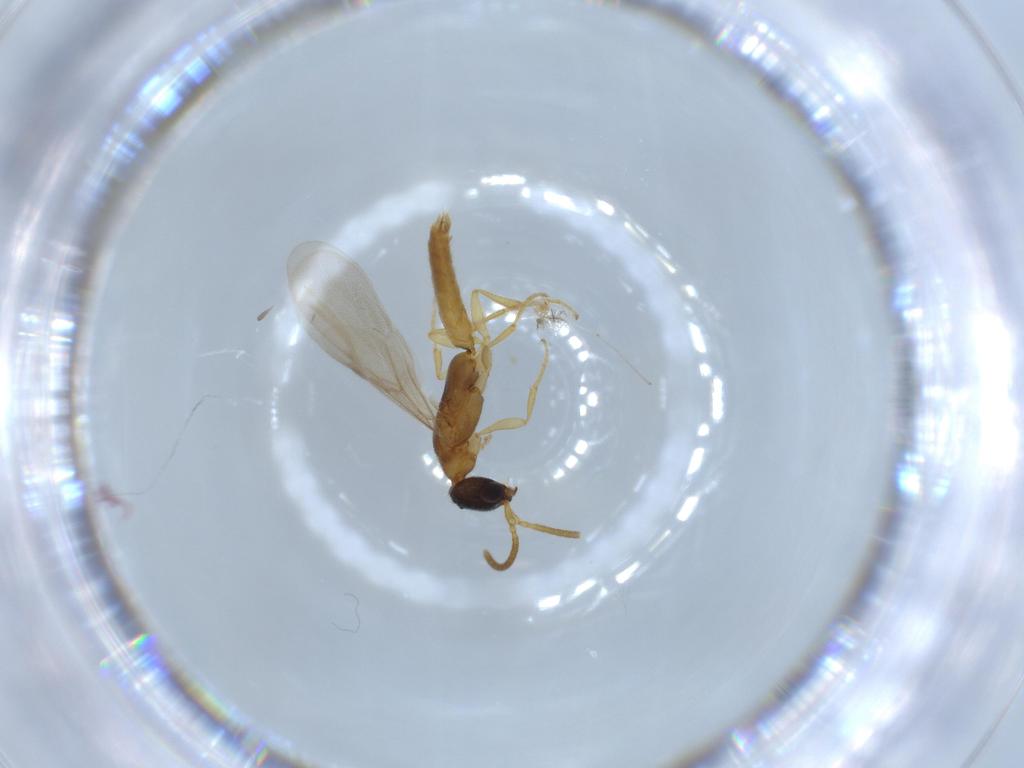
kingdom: Animalia
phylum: Arthropoda
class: Insecta
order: Hymenoptera
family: Bethylidae
